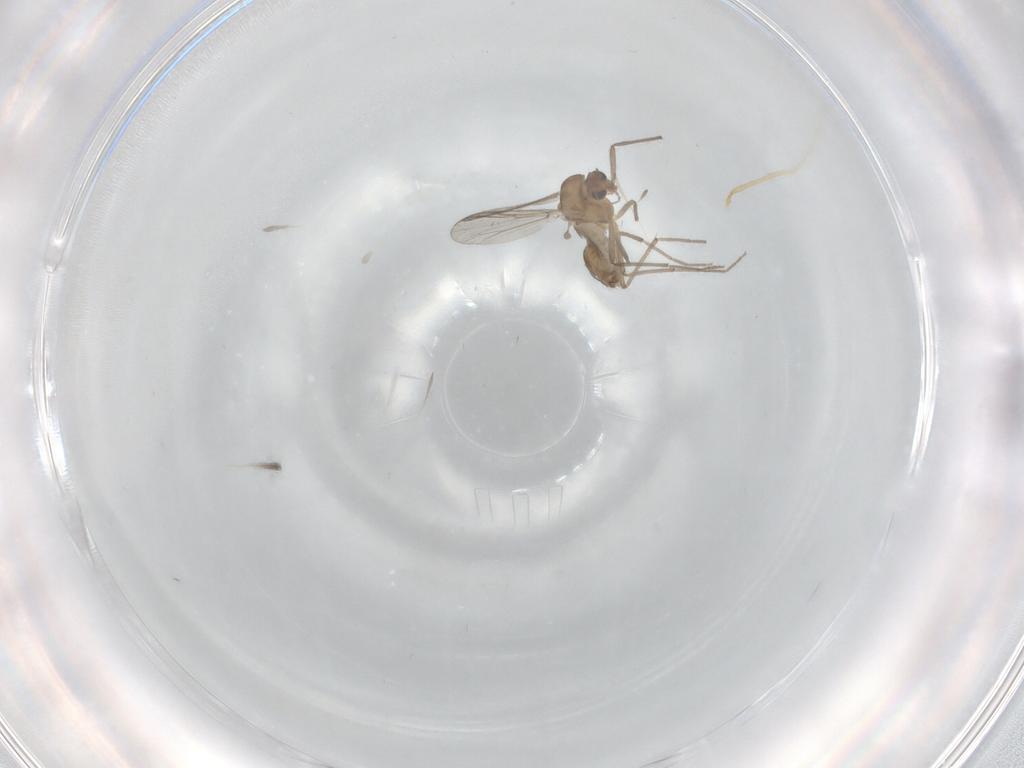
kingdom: Animalia
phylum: Arthropoda
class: Insecta
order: Diptera
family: Chironomidae
